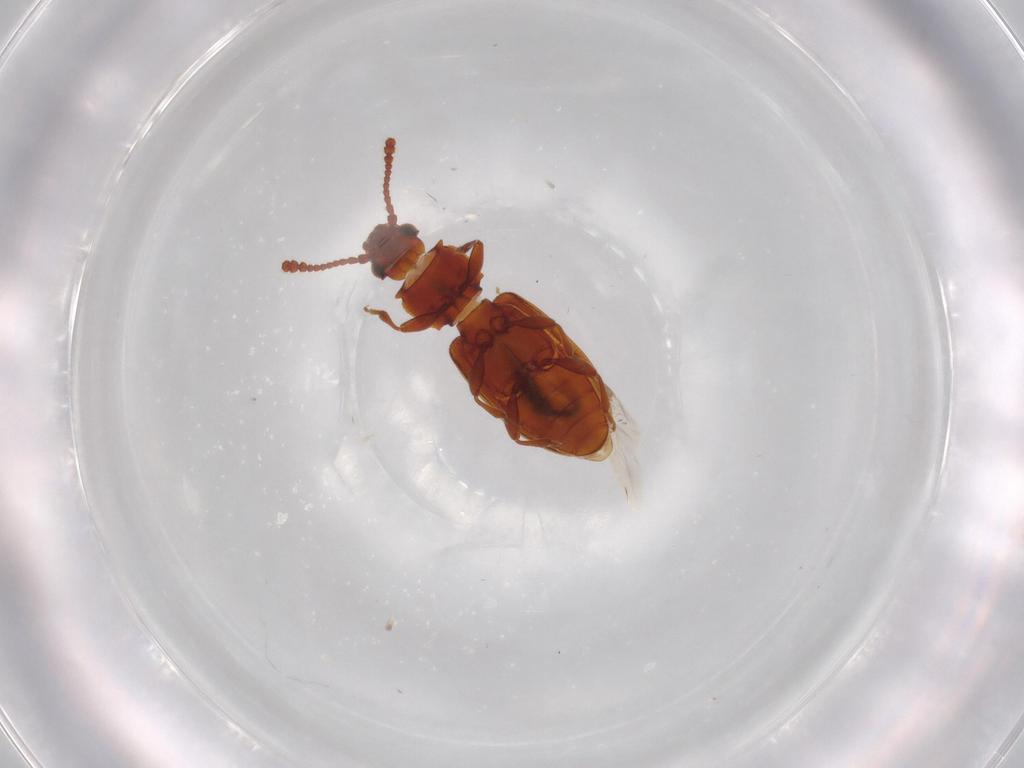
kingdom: Animalia
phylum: Arthropoda
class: Insecta
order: Coleoptera
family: Silvanidae
